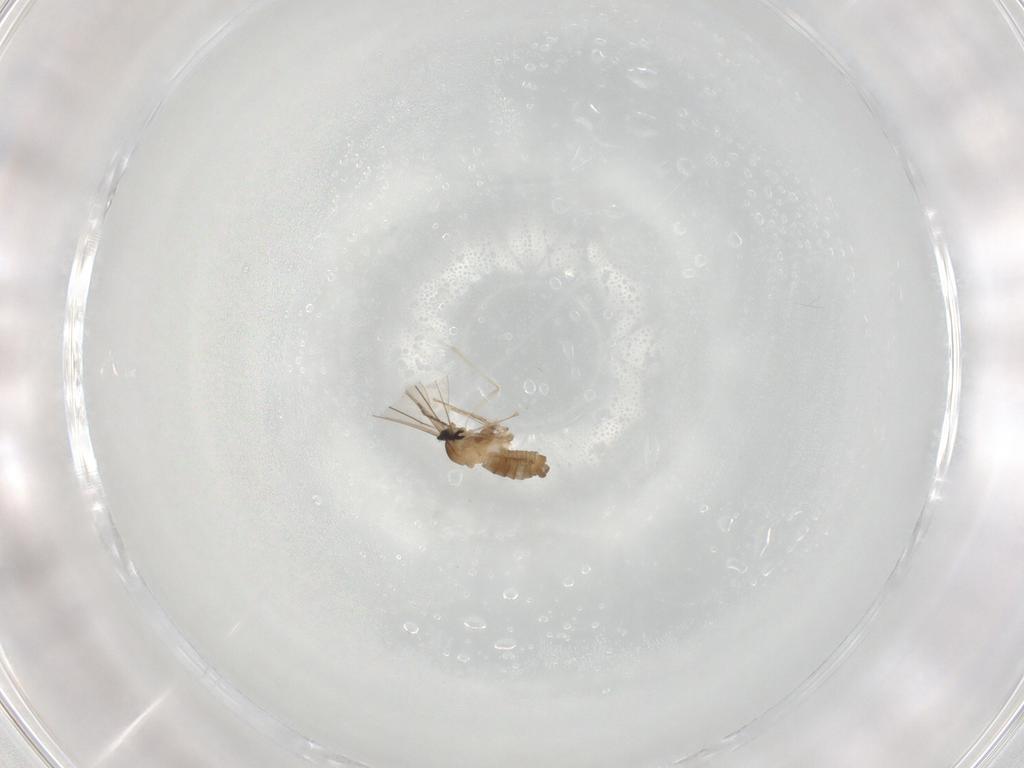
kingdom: Animalia
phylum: Arthropoda
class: Insecta
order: Diptera
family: Cecidomyiidae
